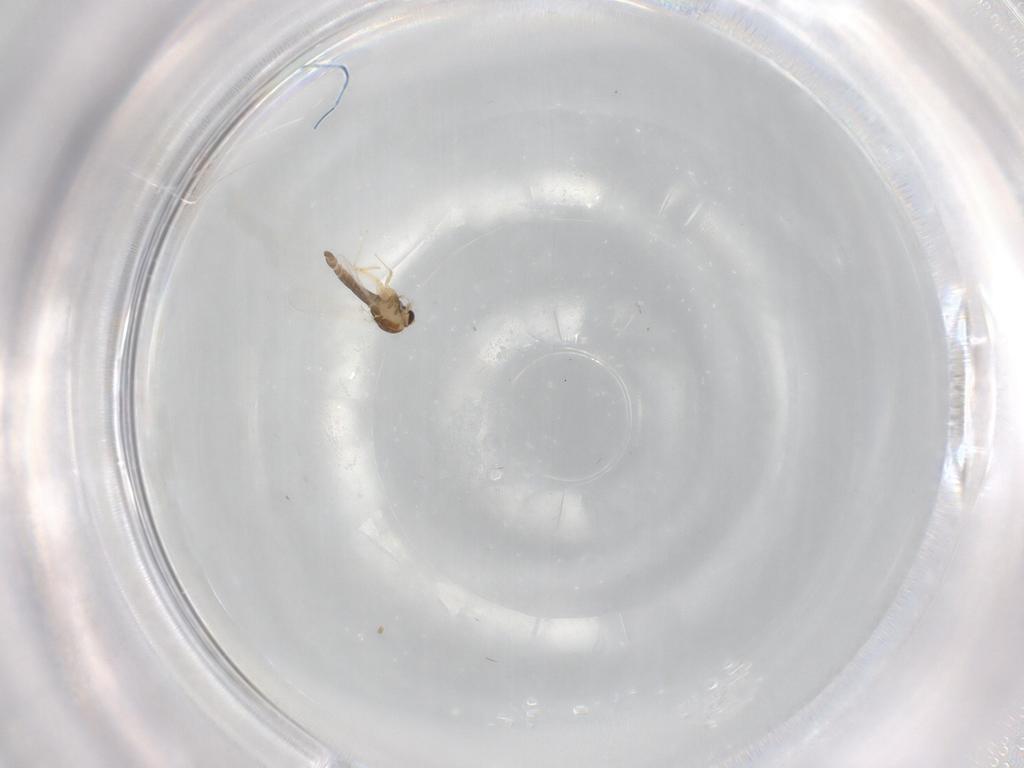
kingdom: Animalia
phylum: Arthropoda
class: Insecta
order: Diptera
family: Chironomidae
